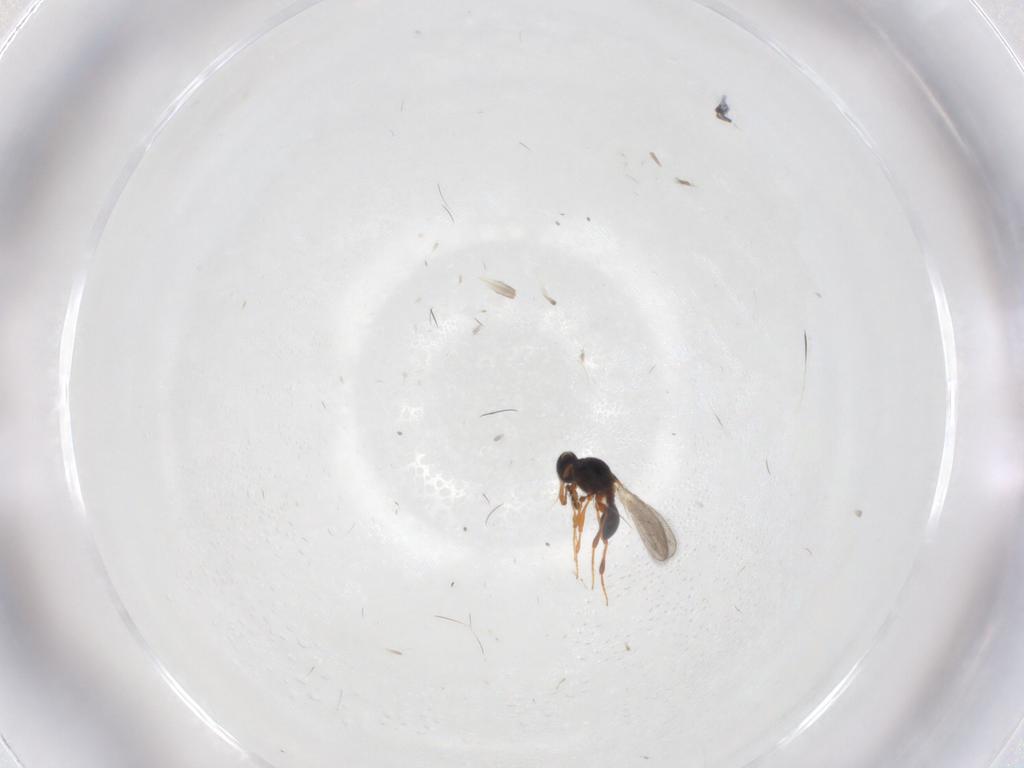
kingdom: Animalia
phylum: Arthropoda
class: Insecta
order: Hymenoptera
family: Platygastridae
